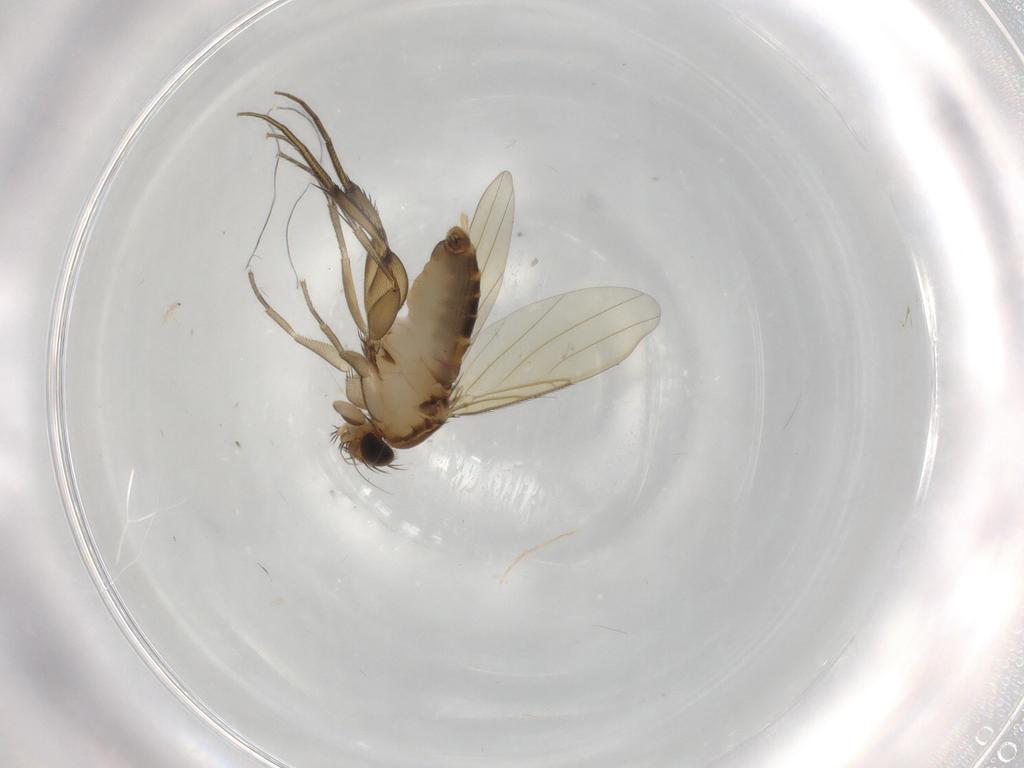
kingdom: Animalia
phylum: Arthropoda
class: Insecta
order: Diptera
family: Phoridae
